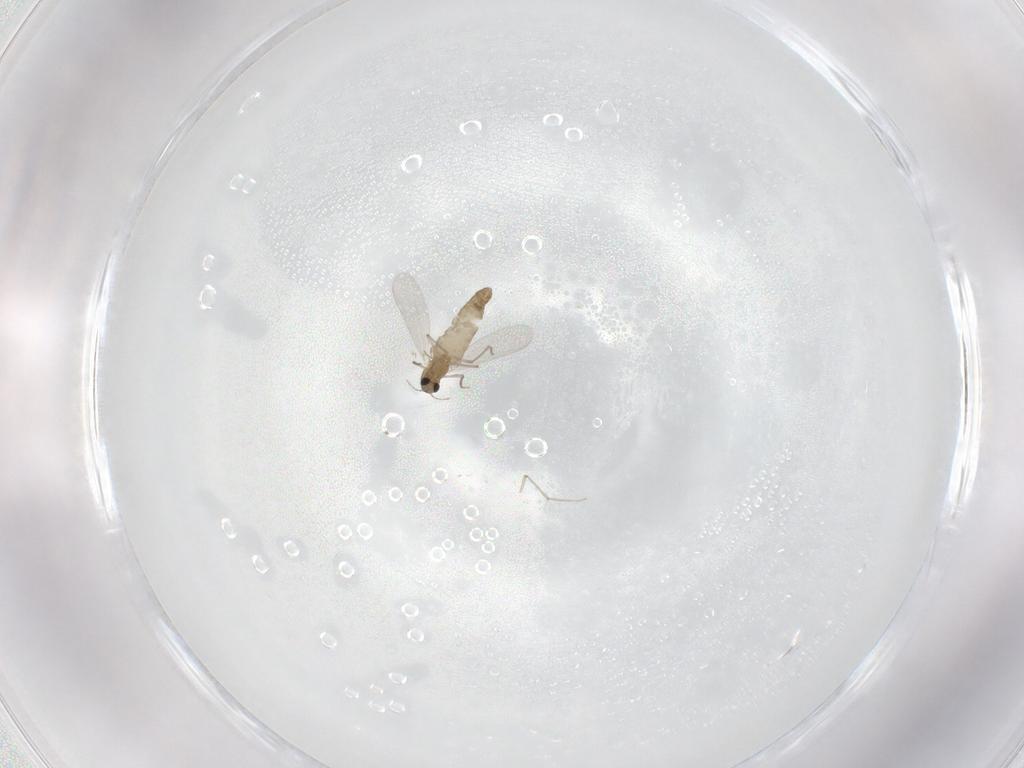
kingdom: Animalia
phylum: Arthropoda
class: Insecta
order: Diptera
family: Chironomidae
